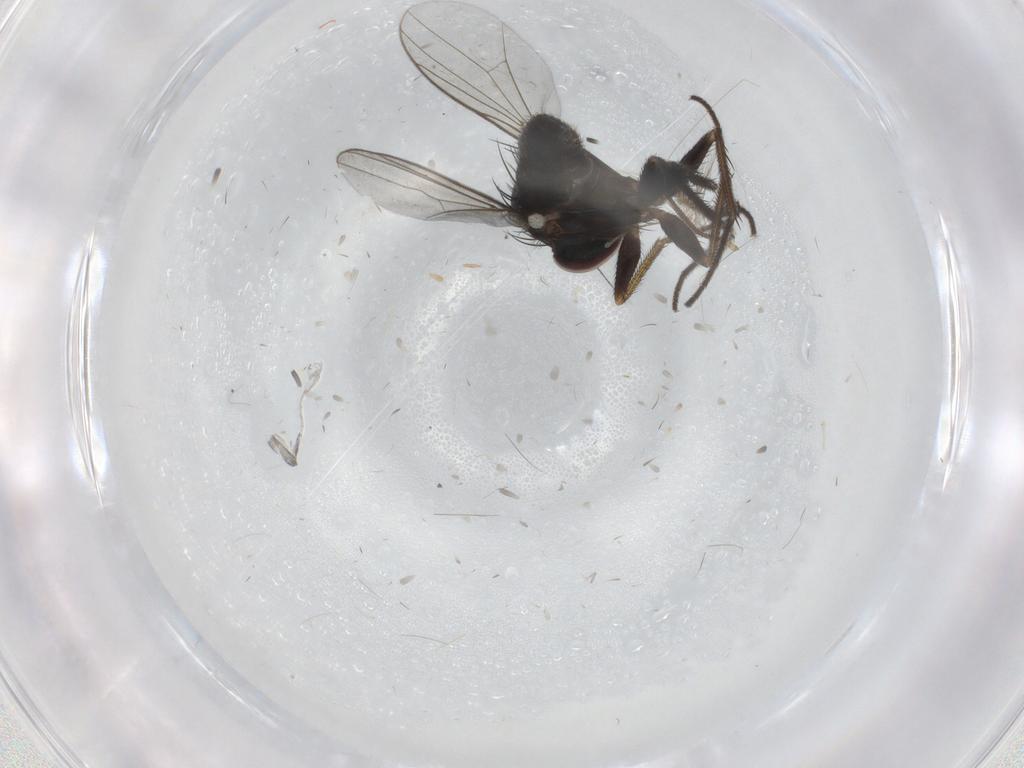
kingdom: Animalia
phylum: Arthropoda
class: Insecta
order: Diptera
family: Dolichopodidae
